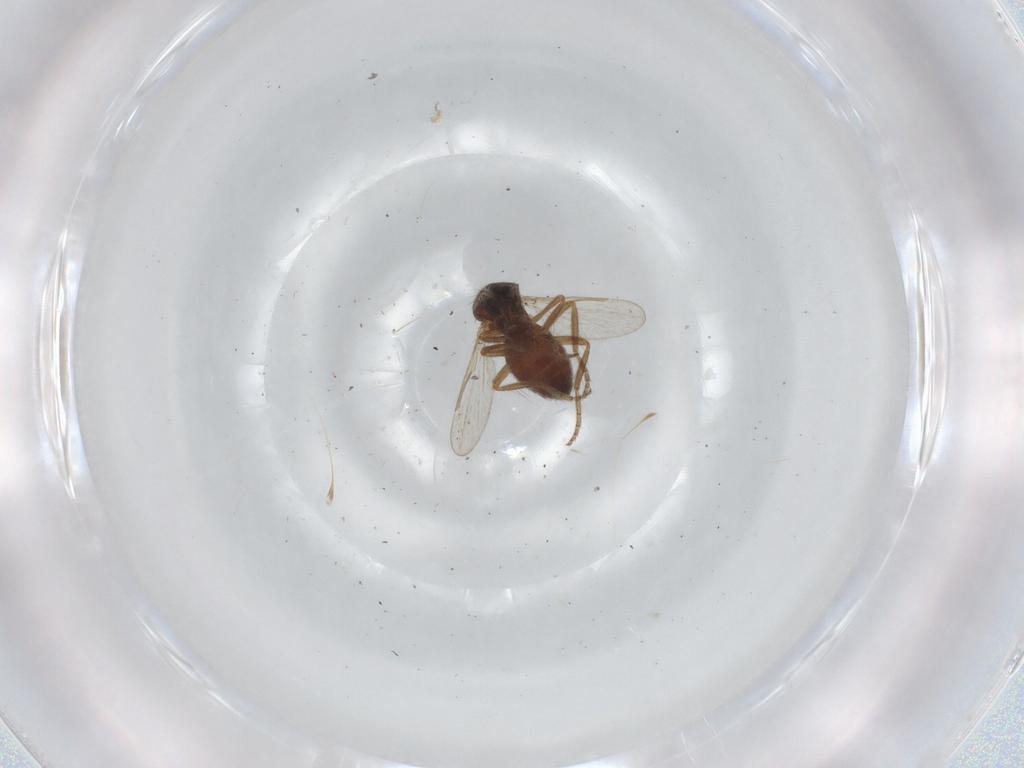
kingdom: Animalia
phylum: Arthropoda
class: Insecta
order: Diptera
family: Ceratopogonidae
